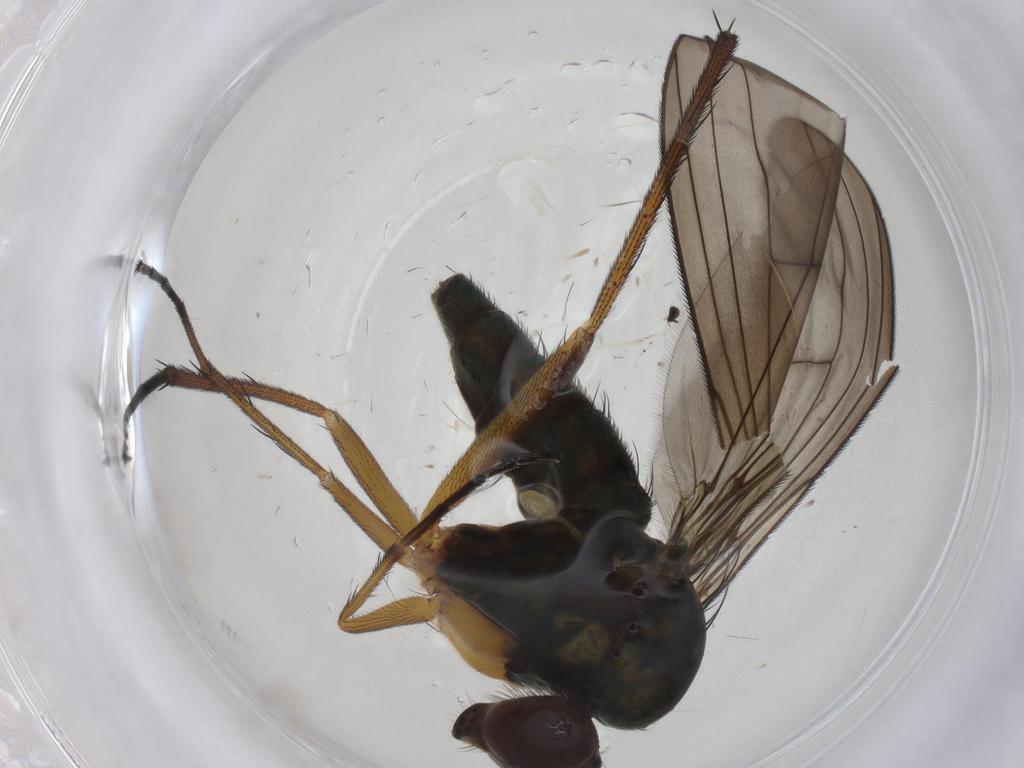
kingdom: Animalia
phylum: Arthropoda
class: Insecta
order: Diptera
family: Dolichopodidae
